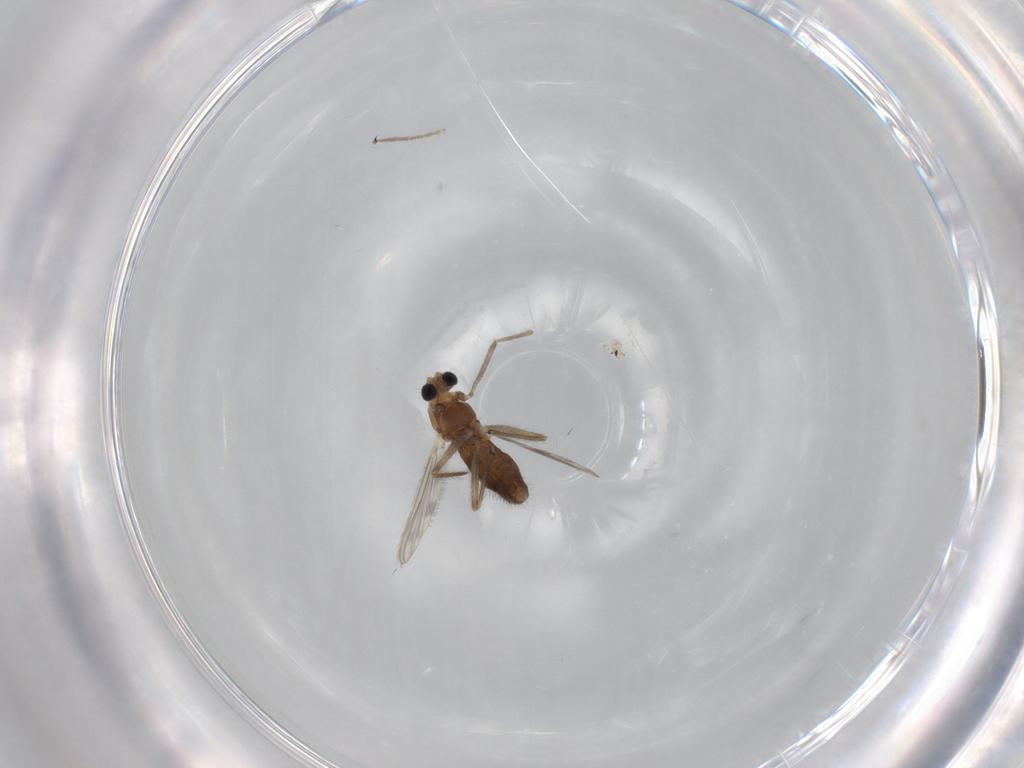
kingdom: Animalia
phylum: Arthropoda
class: Insecta
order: Diptera
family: Chironomidae
